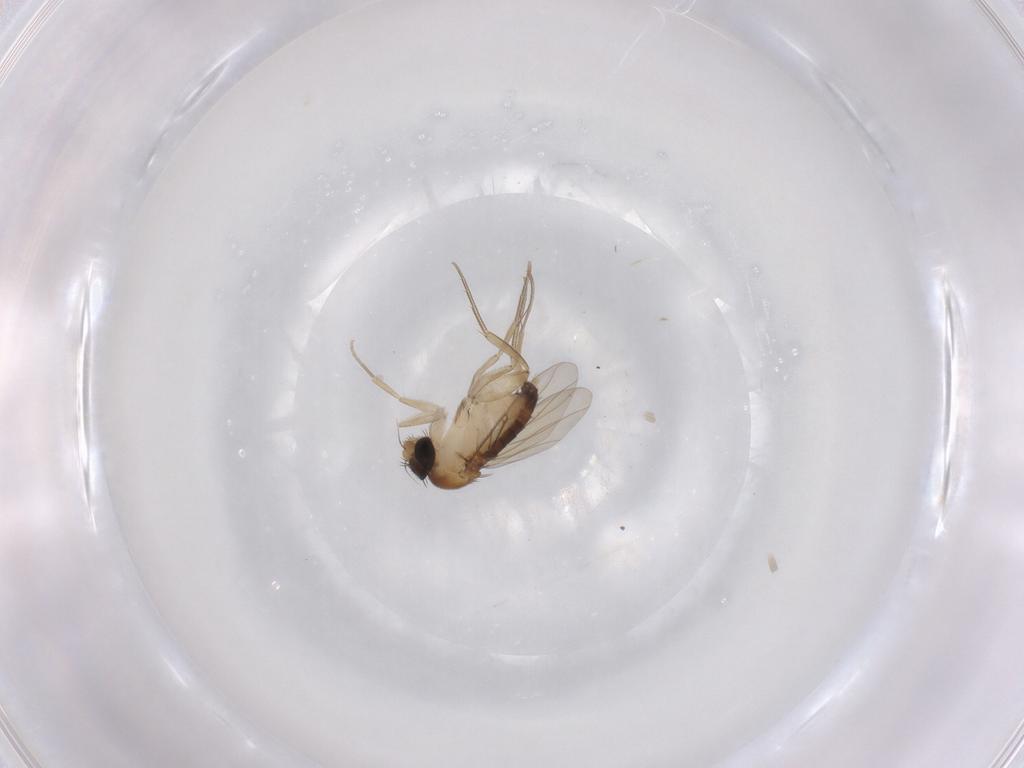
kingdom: Animalia
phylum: Arthropoda
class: Insecta
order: Diptera
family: Phoridae
